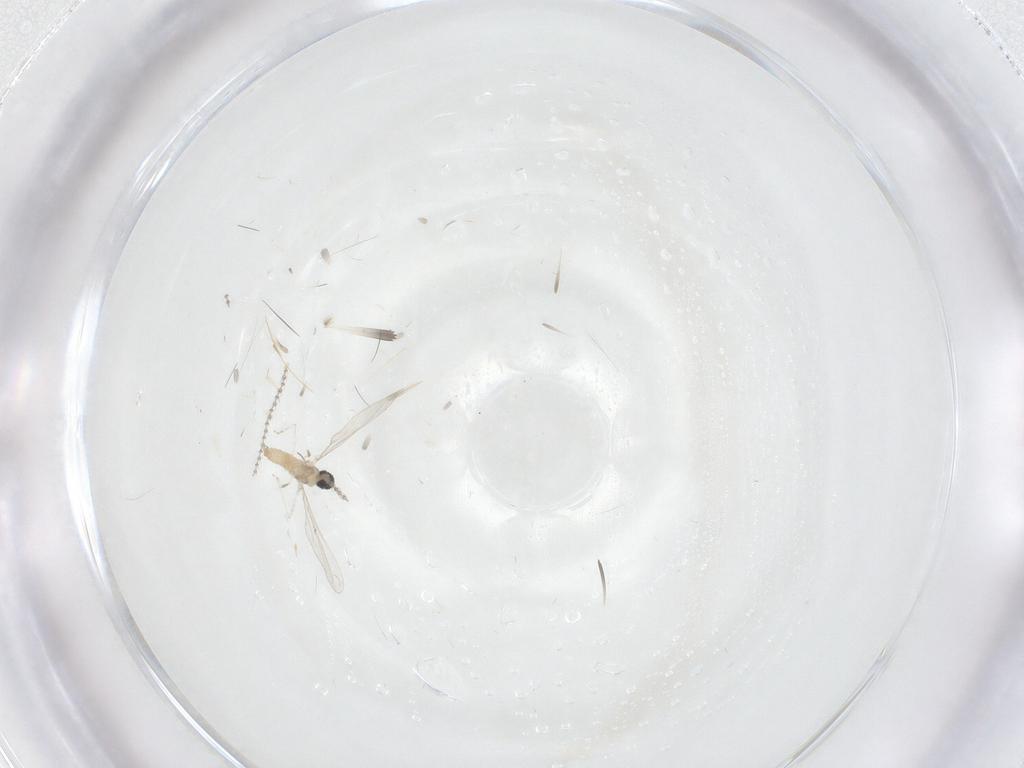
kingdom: Animalia
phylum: Arthropoda
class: Insecta
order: Diptera
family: Cecidomyiidae
